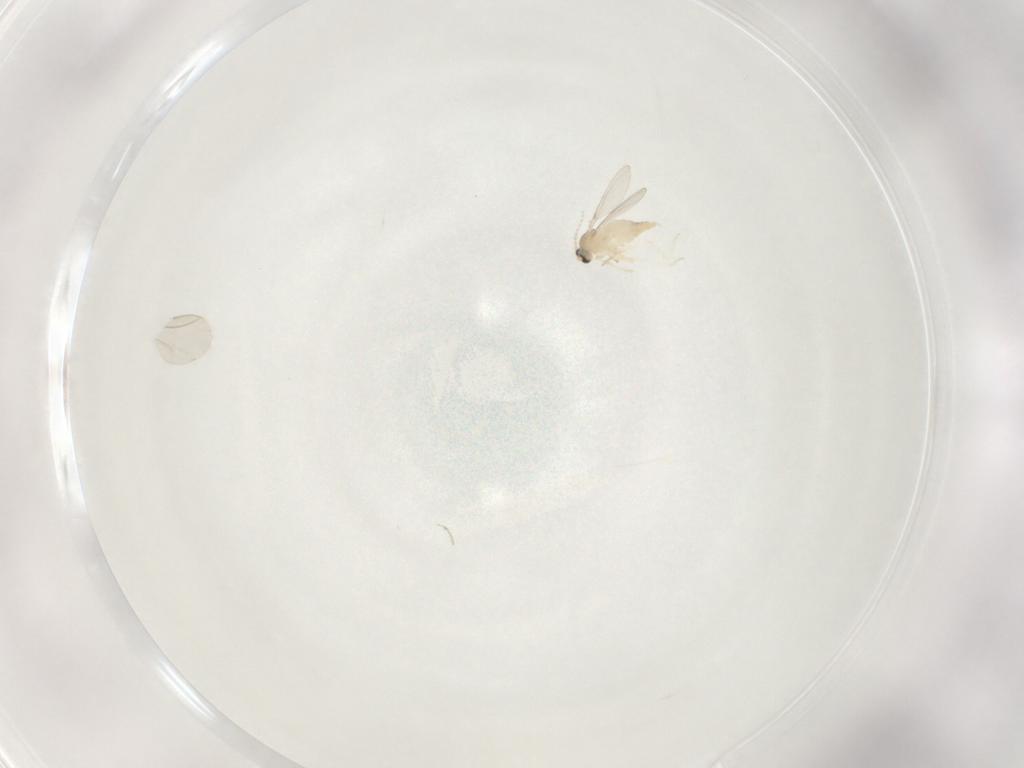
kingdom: Animalia
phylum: Arthropoda
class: Insecta
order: Diptera
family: Cecidomyiidae
